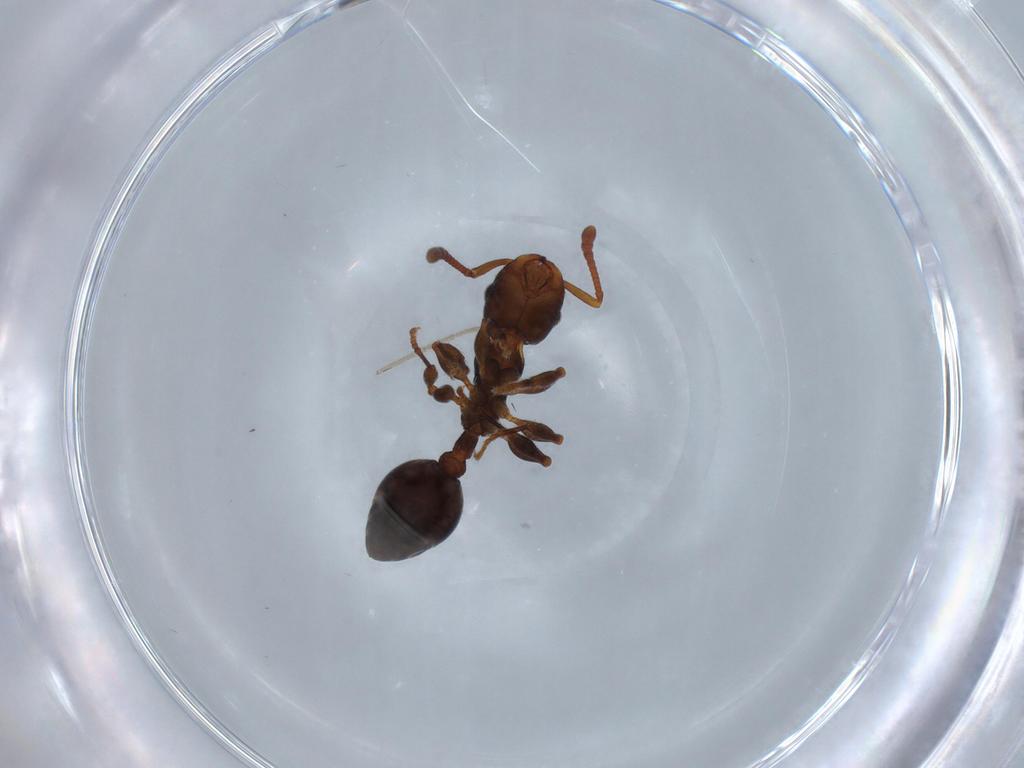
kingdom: Animalia
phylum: Arthropoda
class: Insecta
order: Hymenoptera
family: Formicidae
